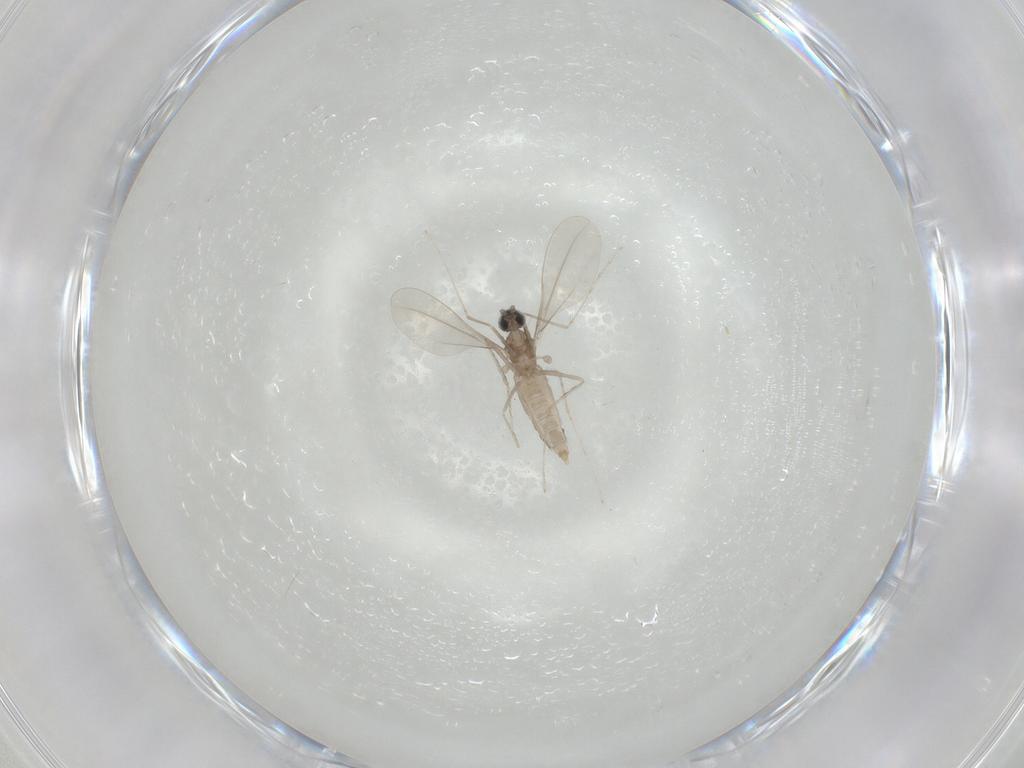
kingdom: Animalia
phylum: Arthropoda
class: Insecta
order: Diptera
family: Cecidomyiidae
